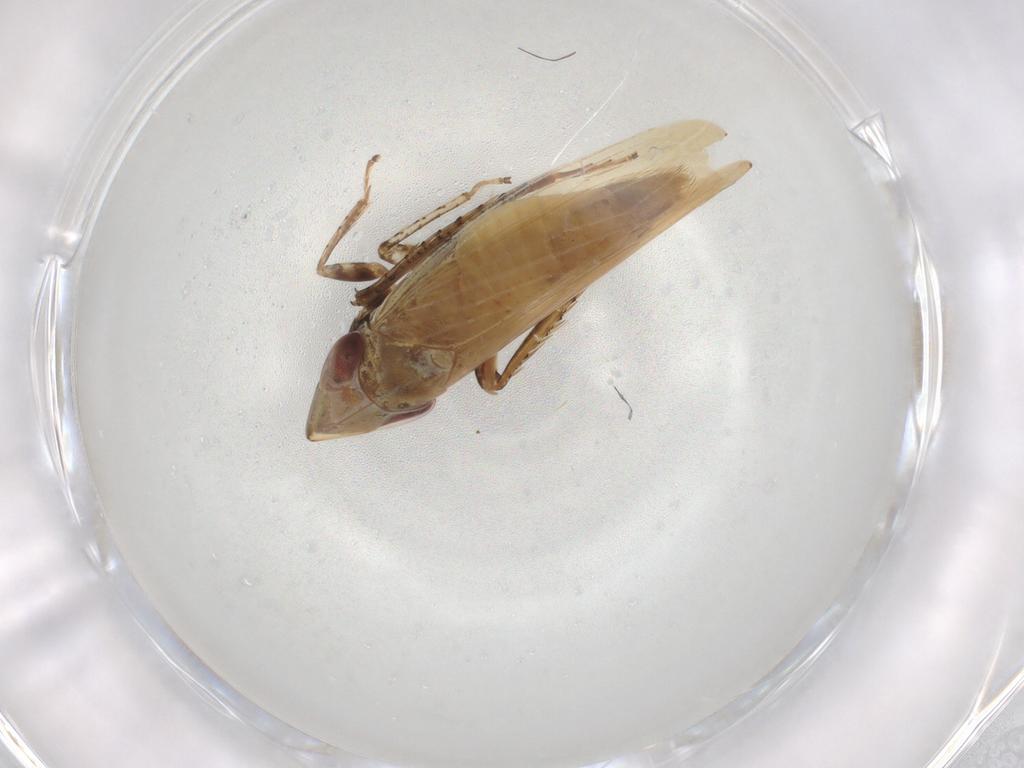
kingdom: Animalia
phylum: Arthropoda
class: Insecta
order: Hemiptera
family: Cicadellidae
